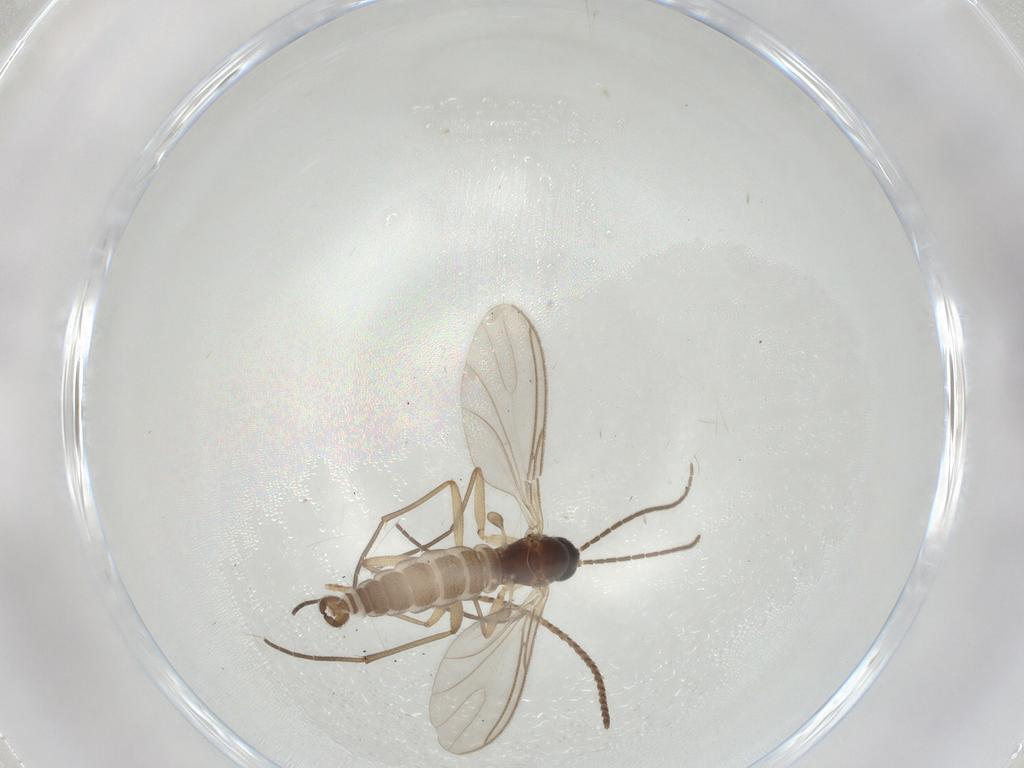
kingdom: Animalia
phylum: Arthropoda
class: Insecta
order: Diptera
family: Sciaridae
